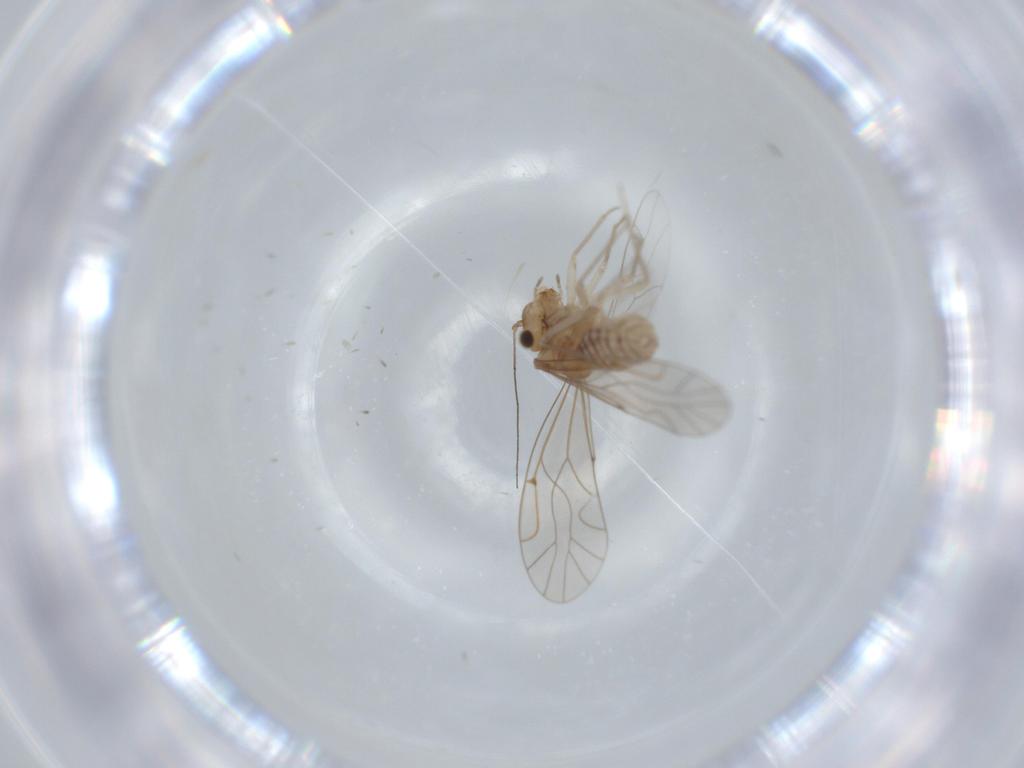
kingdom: Animalia
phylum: Arthropoda
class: Insecta
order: Psocodea
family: Lachesillidae
